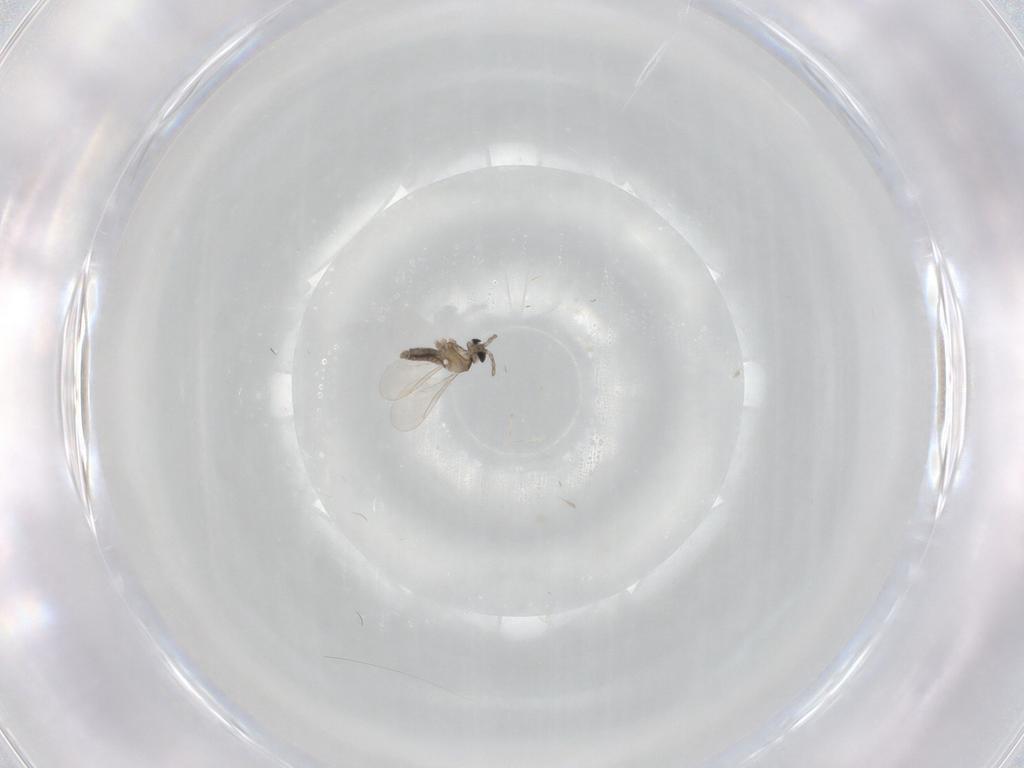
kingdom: Animalia
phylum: Arthropoda
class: Insecta
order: Diptera
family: Cecidomyiidae
